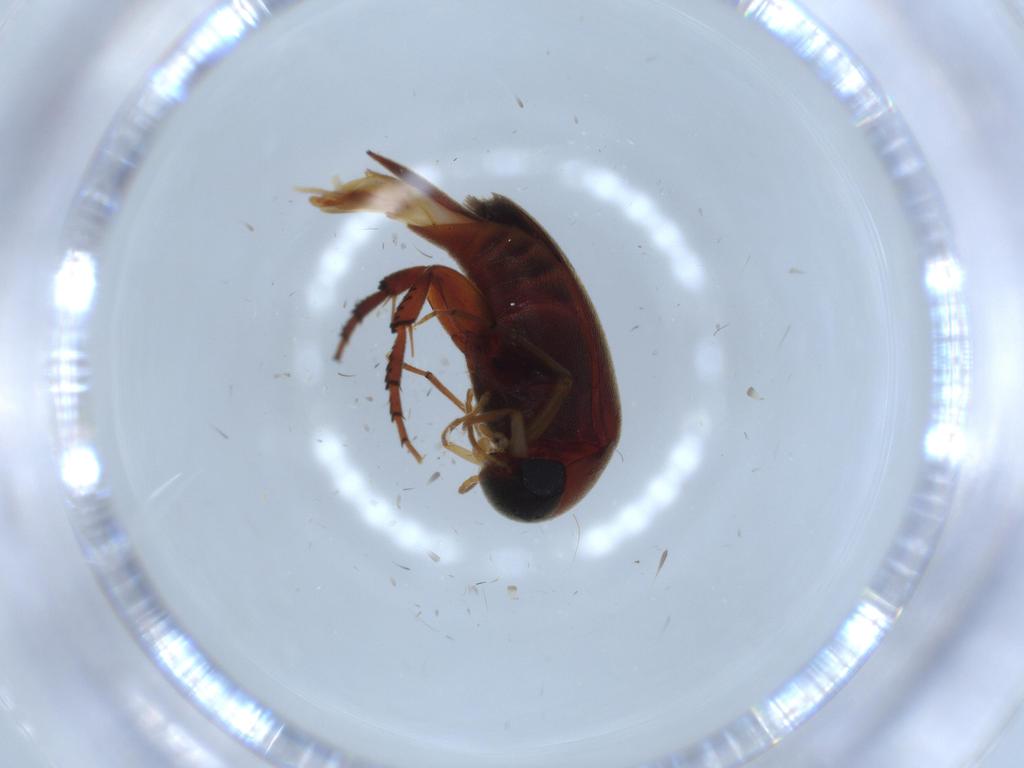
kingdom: Animalia
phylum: Arthropoda
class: Insecta
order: Coleoptera
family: Mordellidae
